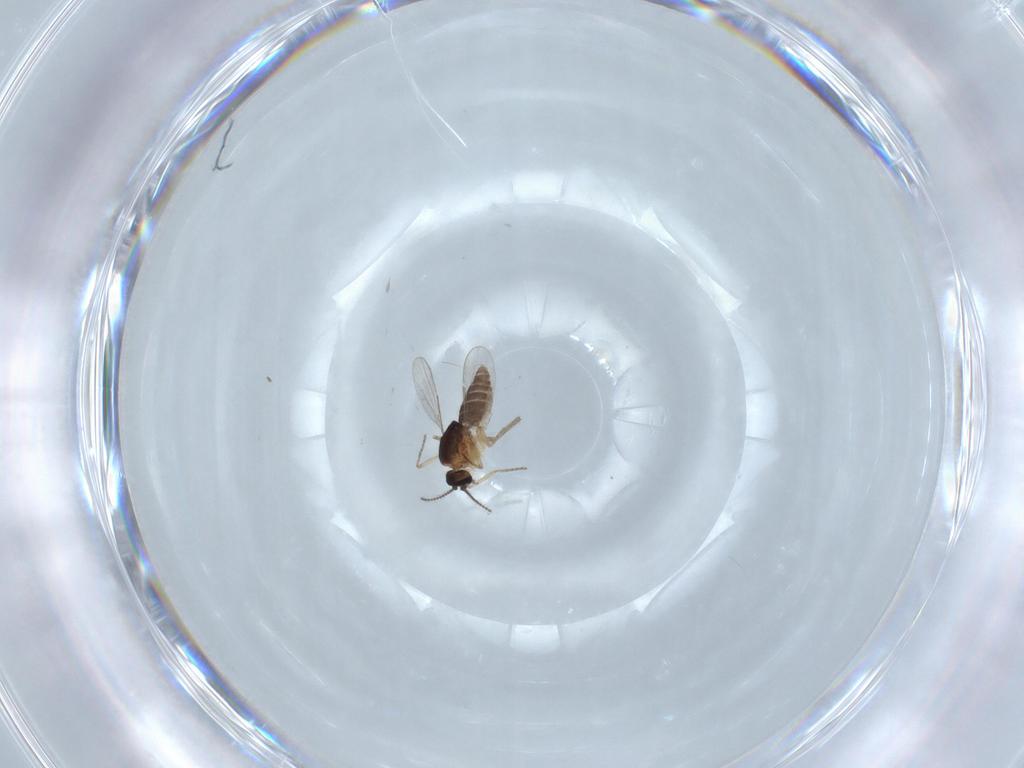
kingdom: Animalia
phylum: Arthropoda
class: Insecta
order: Diptera
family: Ceratopogonidae
